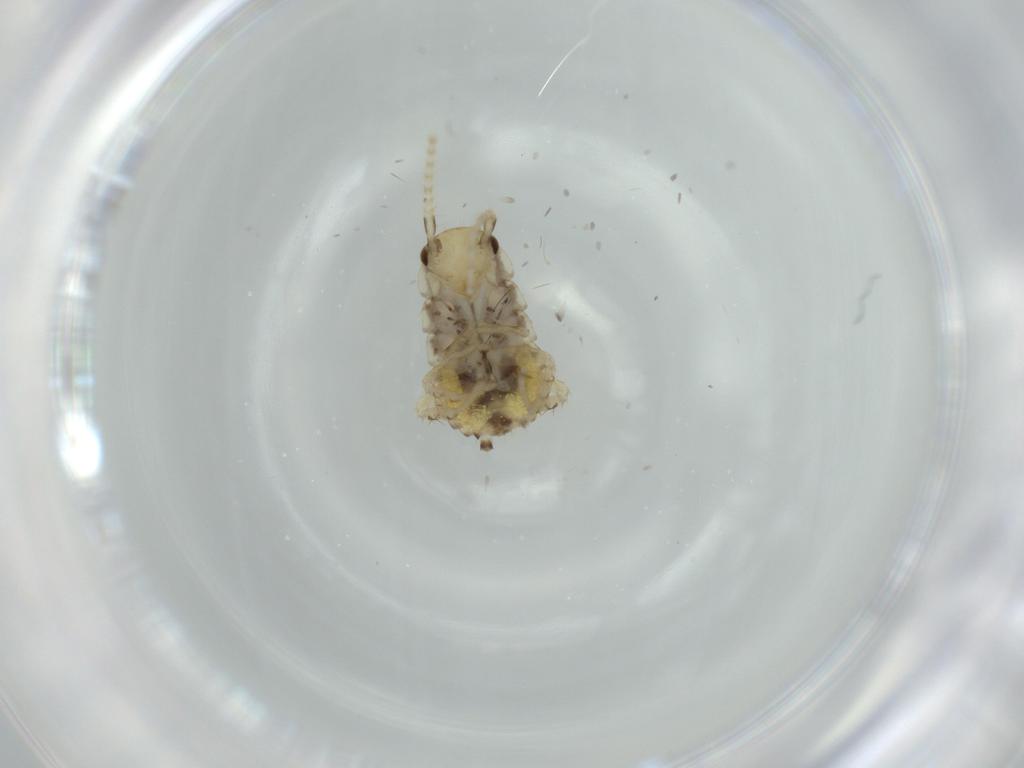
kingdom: Animalia
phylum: Arthropoda
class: Insecta
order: Blattodea
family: Ectobiidae
